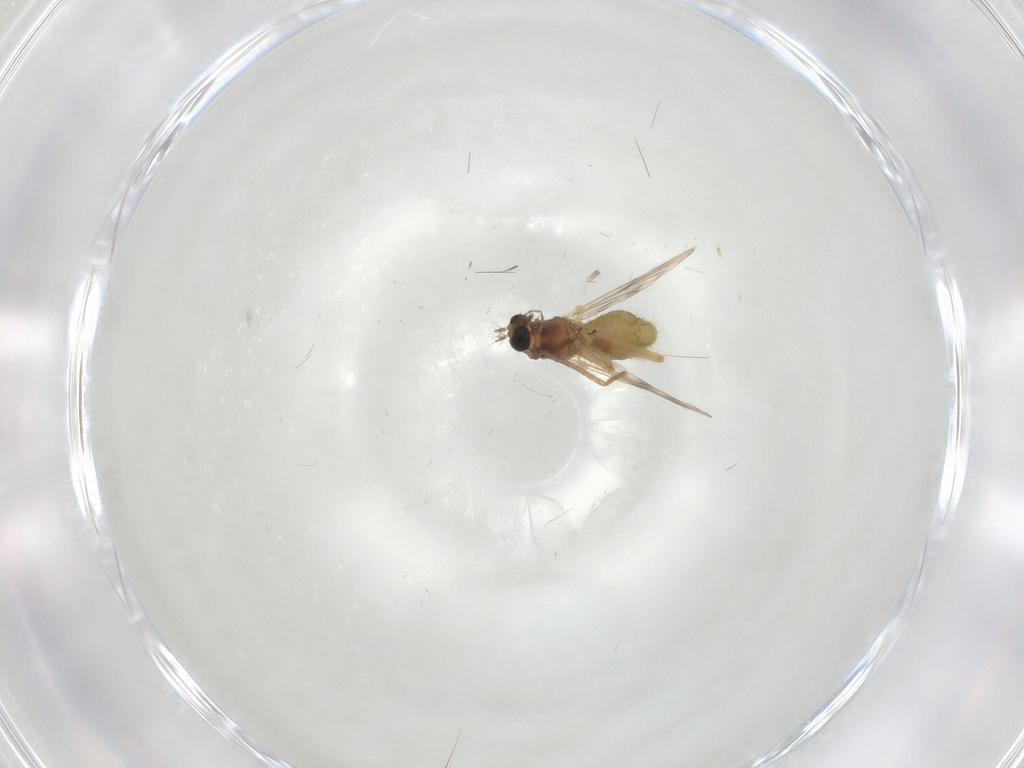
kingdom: Animalia
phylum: Arthropoda
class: Insecta
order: Diptera
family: Chironomidae
